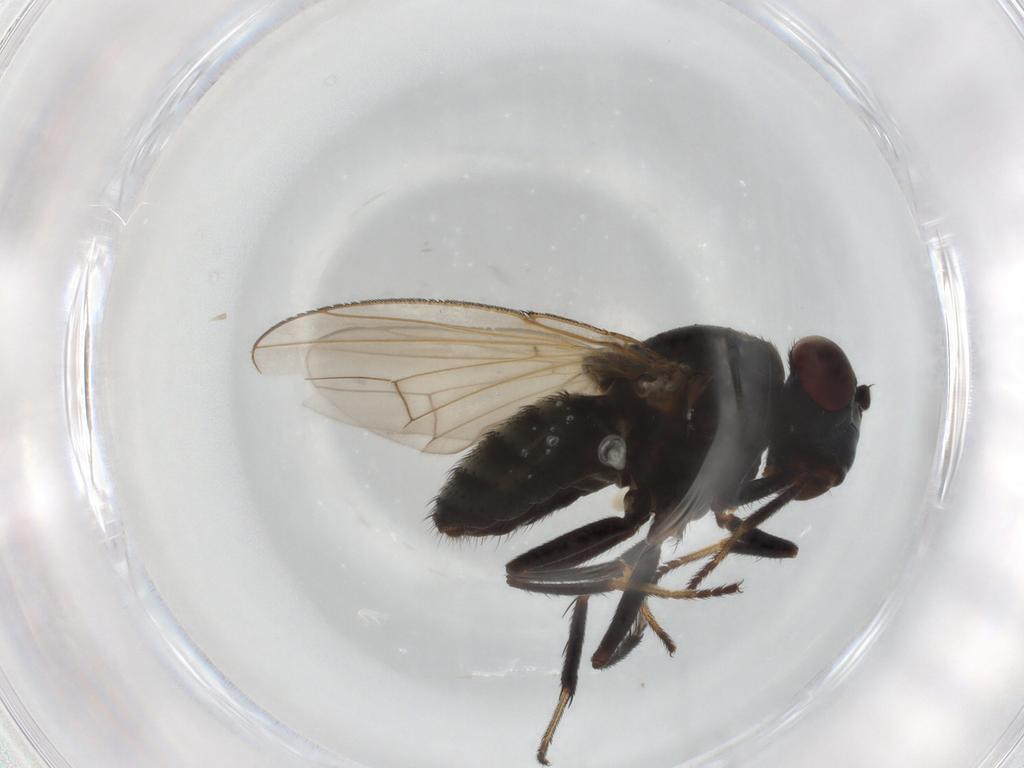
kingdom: Animalia
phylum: Arthropoda
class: Insecta
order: Diptera
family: Ephydridae
